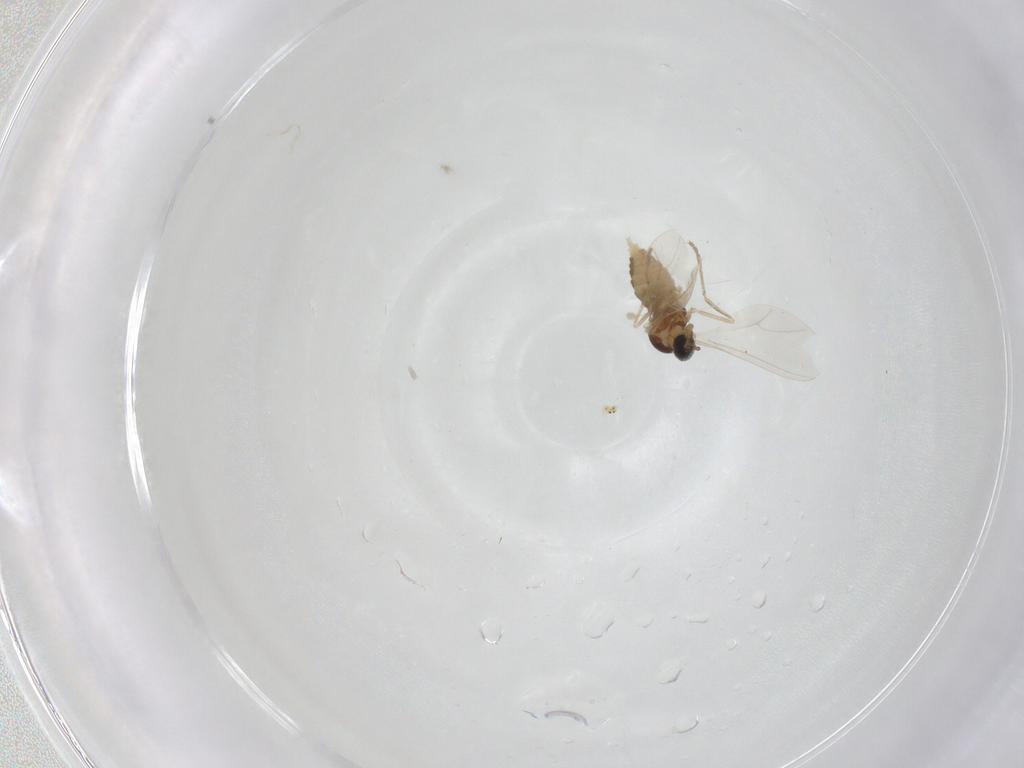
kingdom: Animalia
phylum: Arthropoda
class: Insecta
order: Diptera
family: Cecidomyiidae
